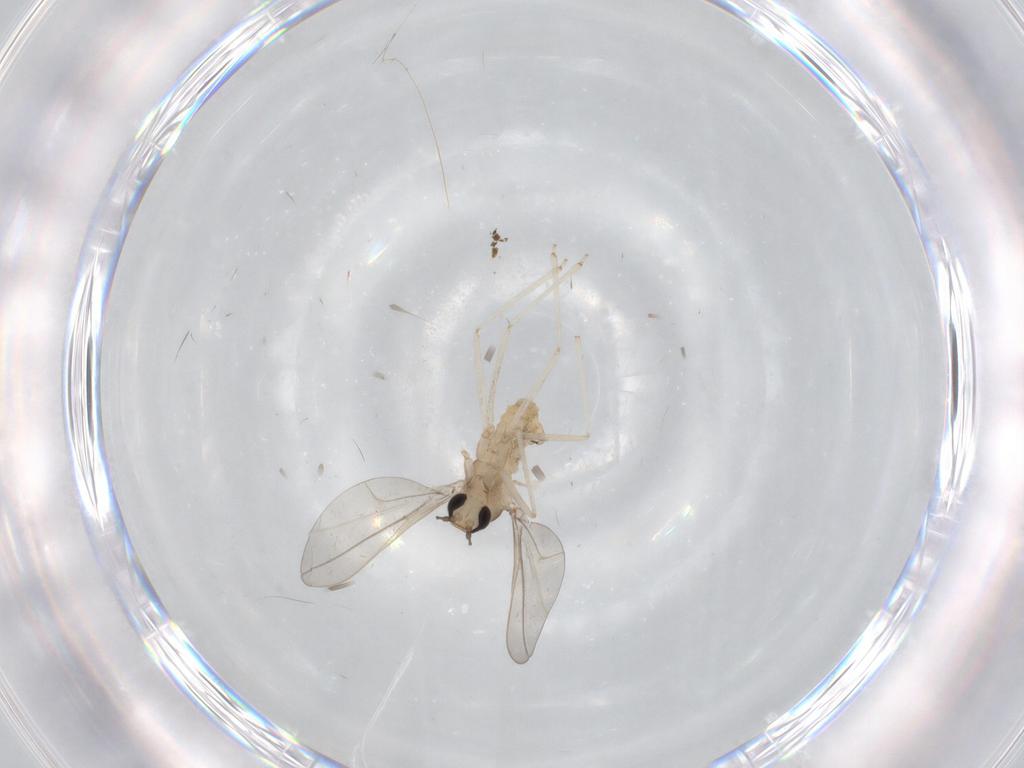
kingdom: Animalia
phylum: Arthropoda
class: Insecta
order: Diptera
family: Cecidomyiidae
